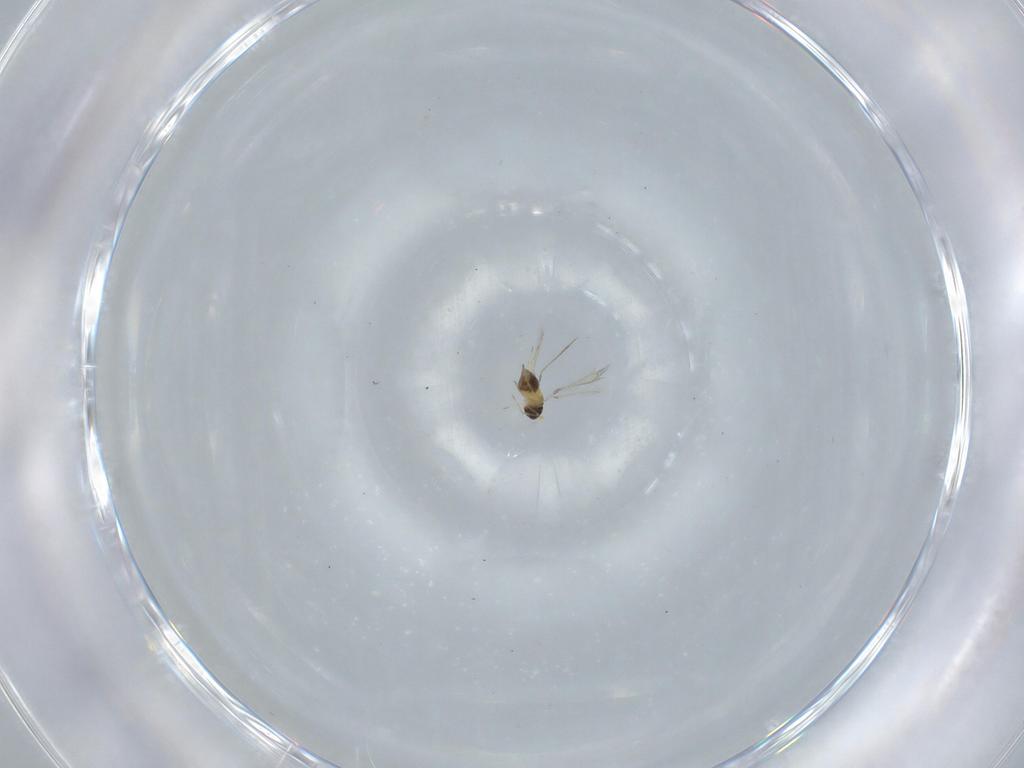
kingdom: Animalia
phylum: Arthropoda
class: Insecta
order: Hymenoptera
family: Mymaridae
